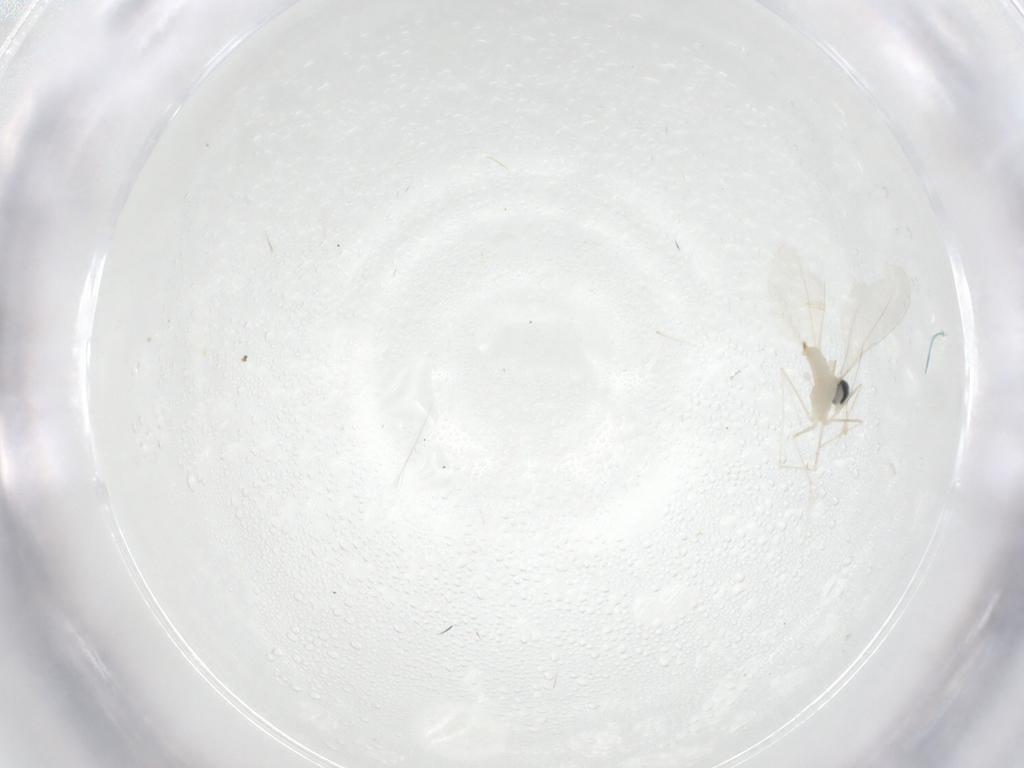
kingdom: Animalia
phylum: Arthropoda
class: Insecta
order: Diptera
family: Cecidomyiidae
